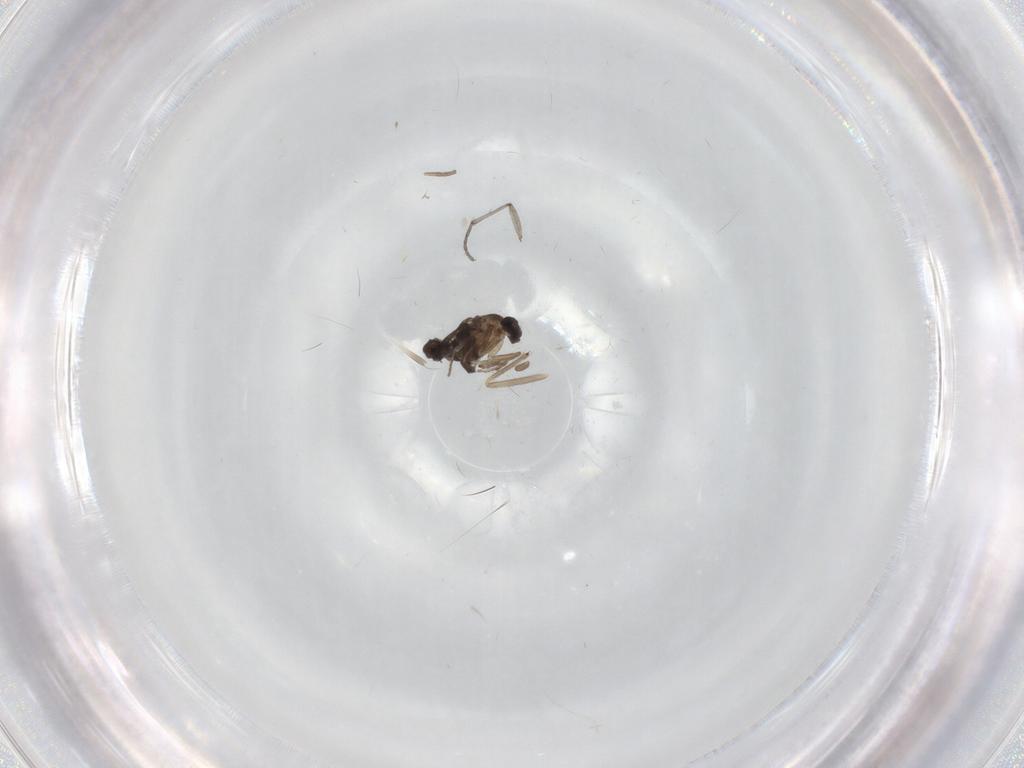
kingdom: Animalia
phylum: Arthropoda
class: Insecta
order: Diptera
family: Sciaridae
